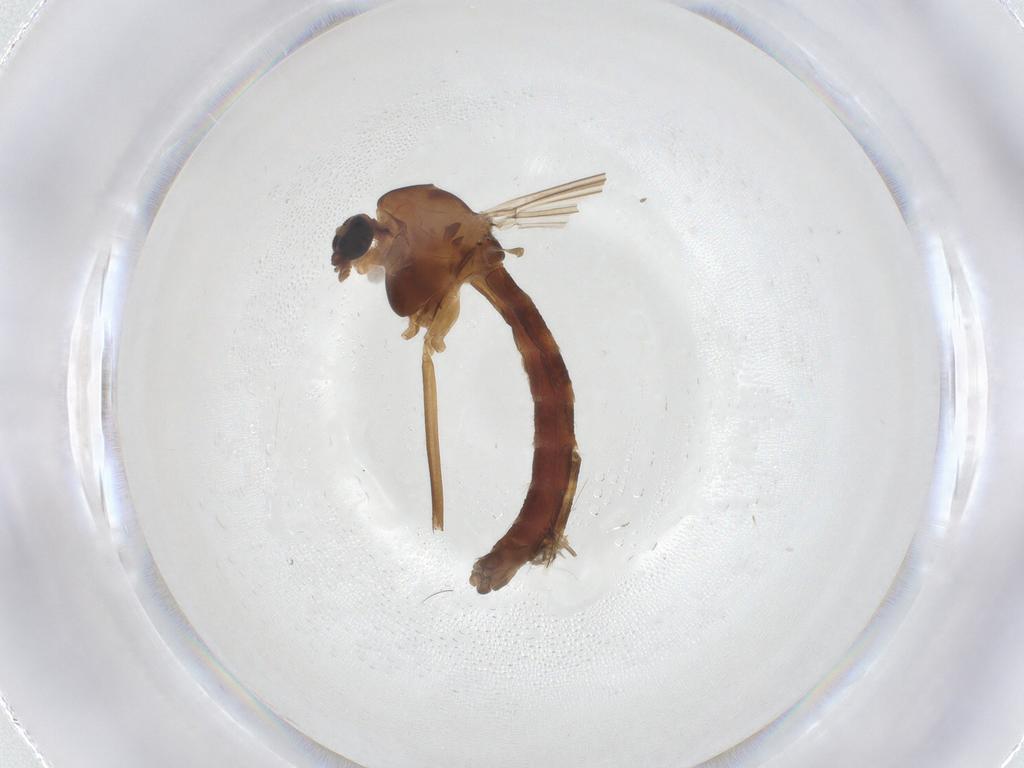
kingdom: Animalia
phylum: Arthropoda
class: Insecta
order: Diptera
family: Chironomidae
